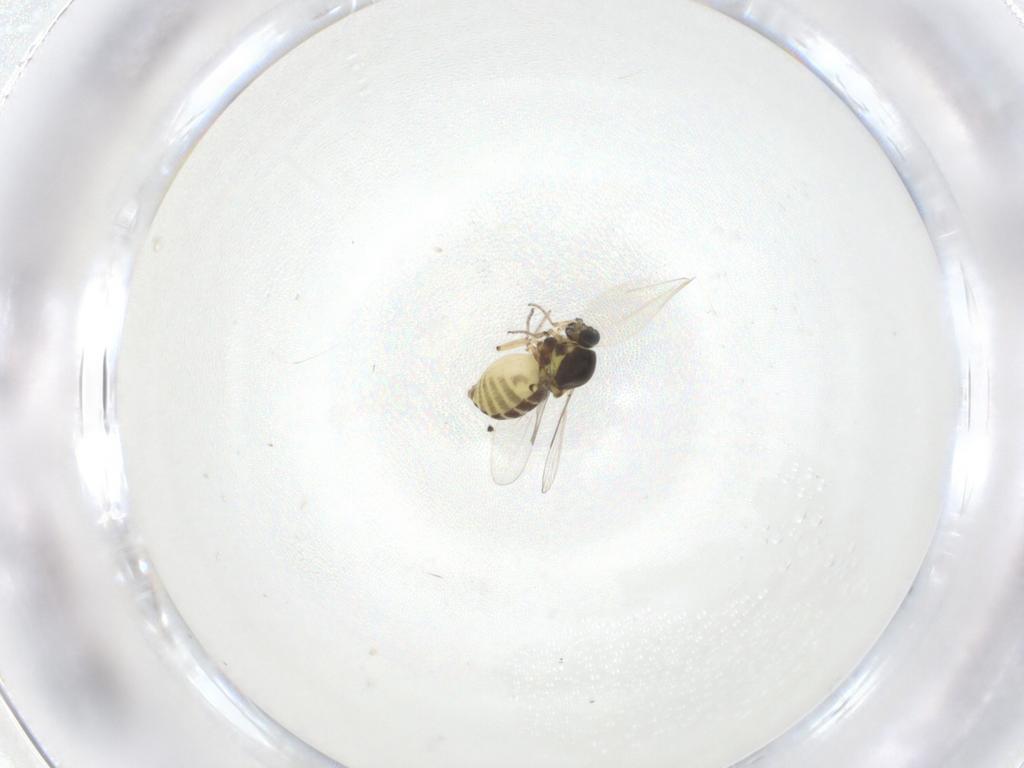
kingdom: Animalia
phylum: Arthropoda
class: Insecta
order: Diptera
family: Ceratopogonidae
